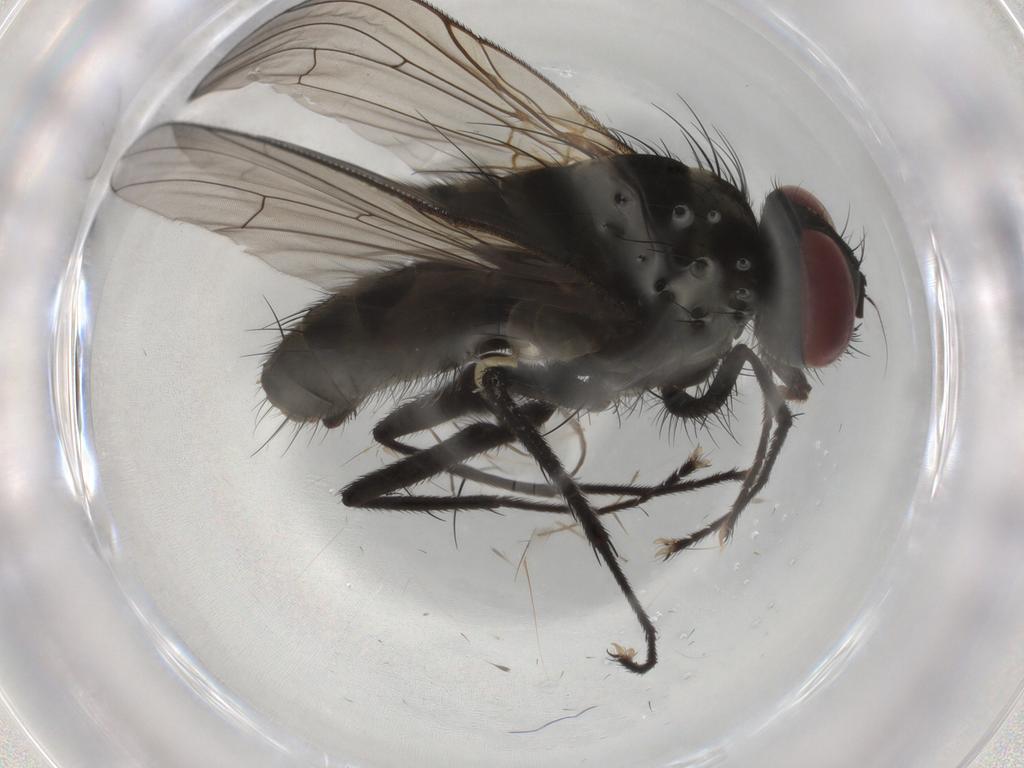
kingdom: Animalia
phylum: Arthropoda
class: Insecta
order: Diptera
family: Muscidae
